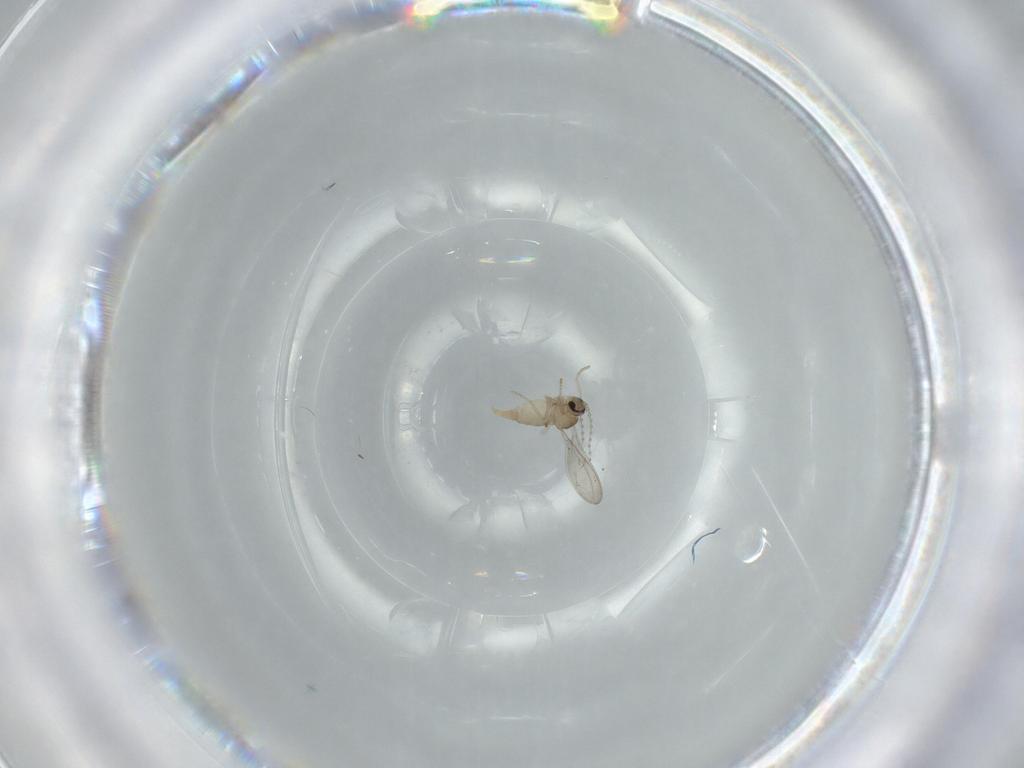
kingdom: Animalia
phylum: Arthropoda
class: Insecta
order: Diptera
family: Cecidomyiidae
